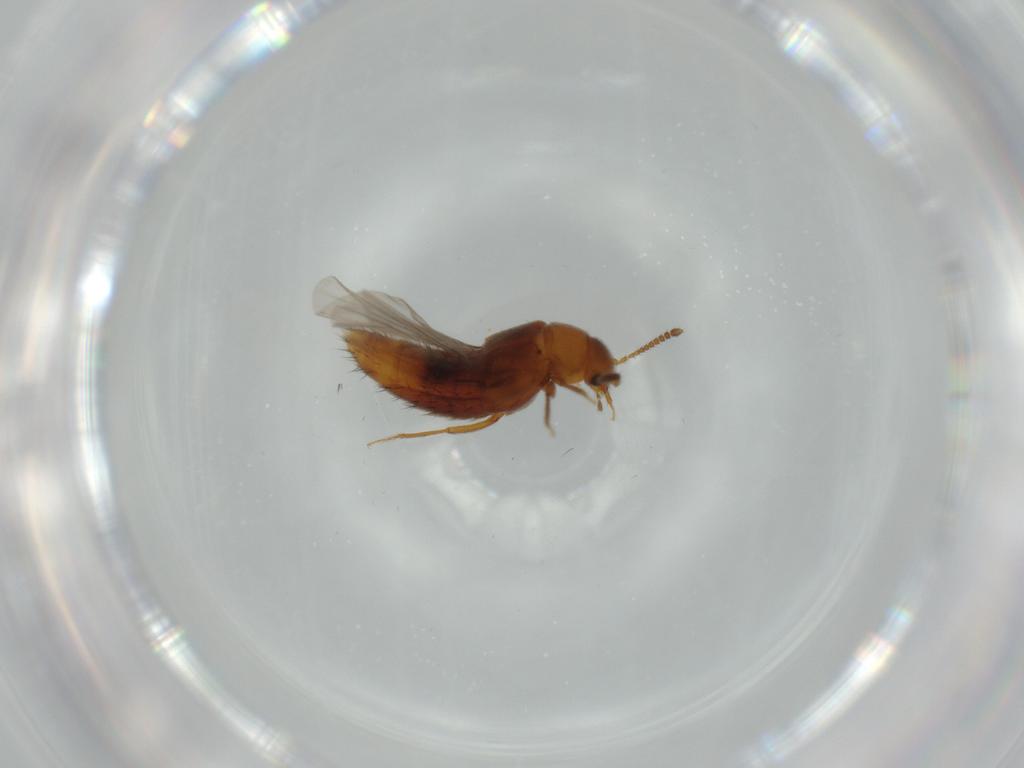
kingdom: Animalia
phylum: Arthropoda
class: Insecta
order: Coleoptera
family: Staphylinidae
